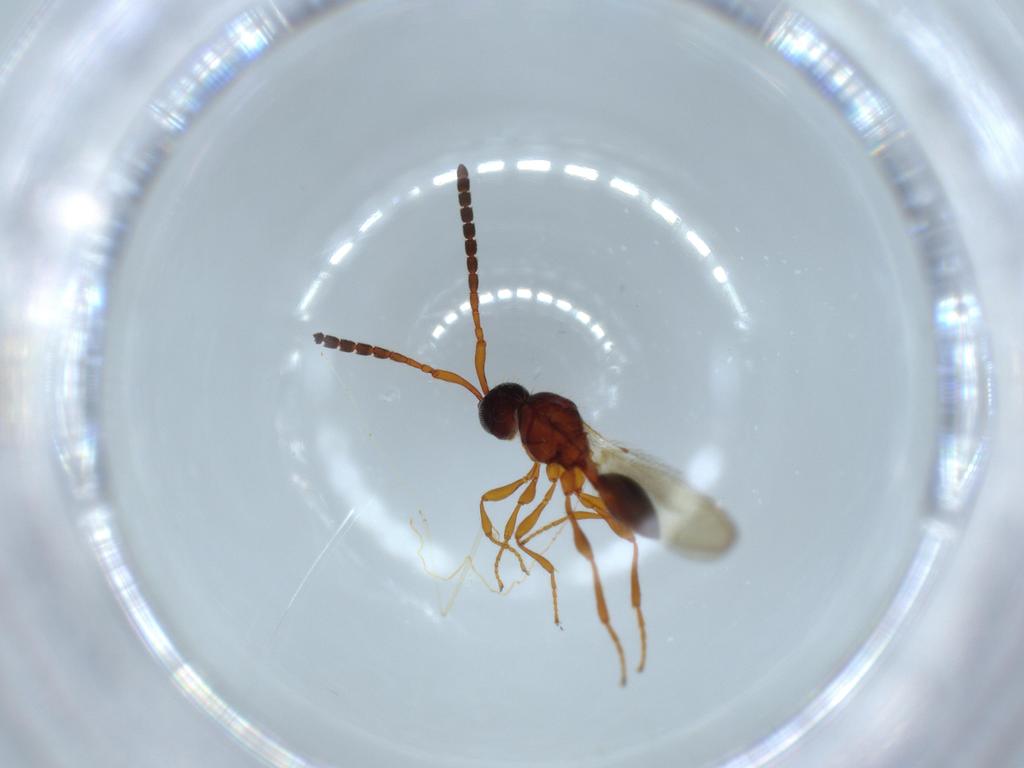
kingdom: Animalia
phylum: Arthropoda
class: Insecta
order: Hymenoptera
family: Diapriidae
